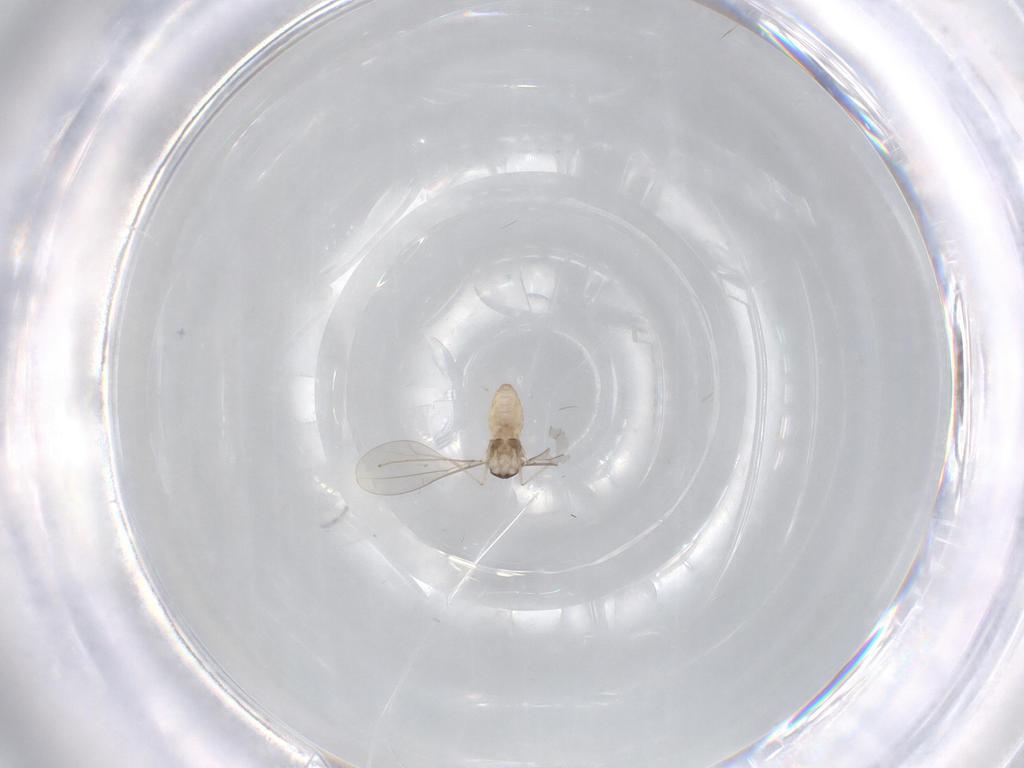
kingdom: Animalia
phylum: Arthropoda
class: Insecta
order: Diptera
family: Cecidomyiidae
